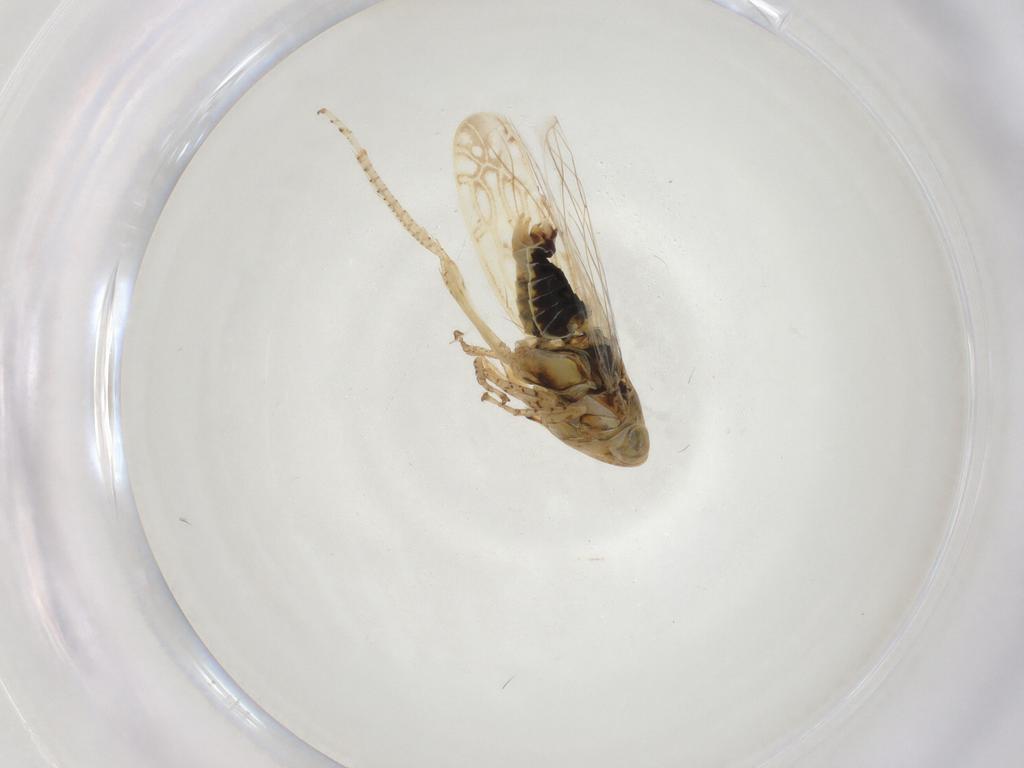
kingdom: Animalia
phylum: Arthropoda
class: Insecta
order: Hemiptera
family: Cicadellidae
